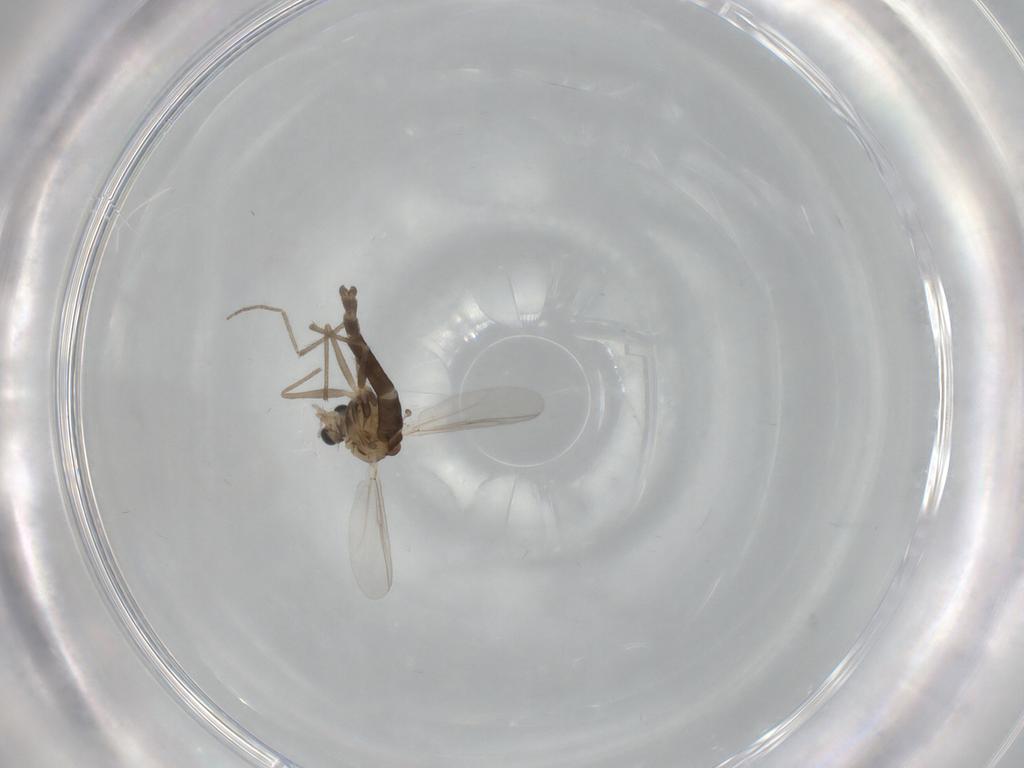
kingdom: Animalia
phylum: Arthropoda
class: Insecta
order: Diptera
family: Chironomidae
